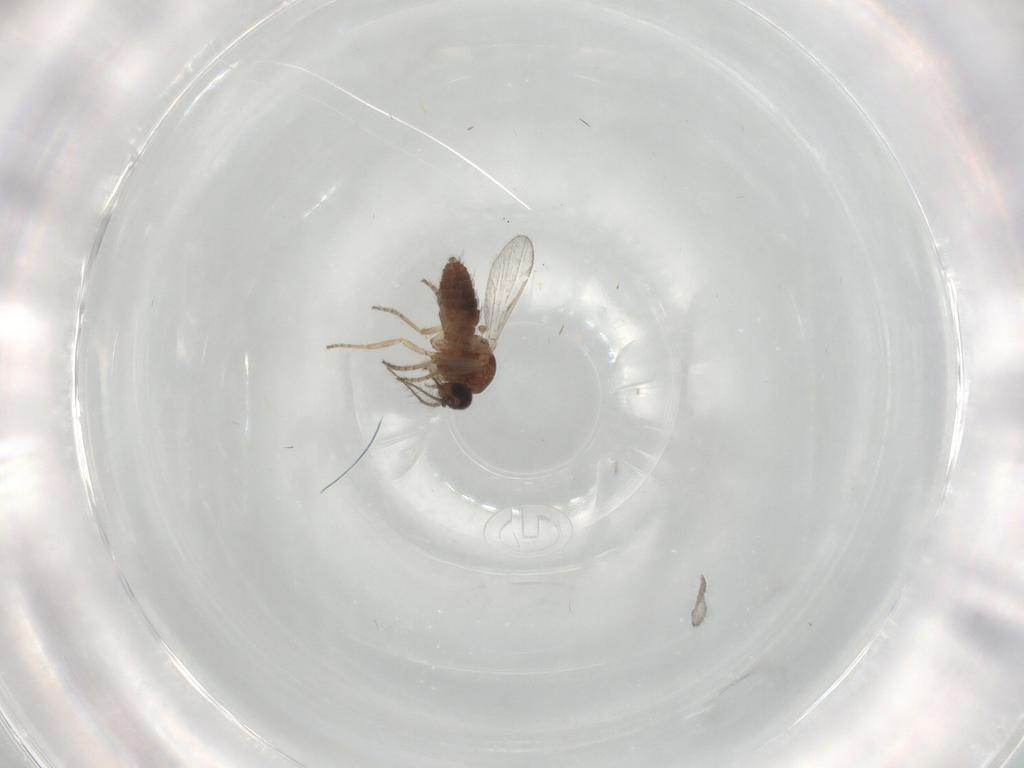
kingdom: Animalia
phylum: Arthropoda
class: Insecta
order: Diptera
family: Ceratopogonidae
